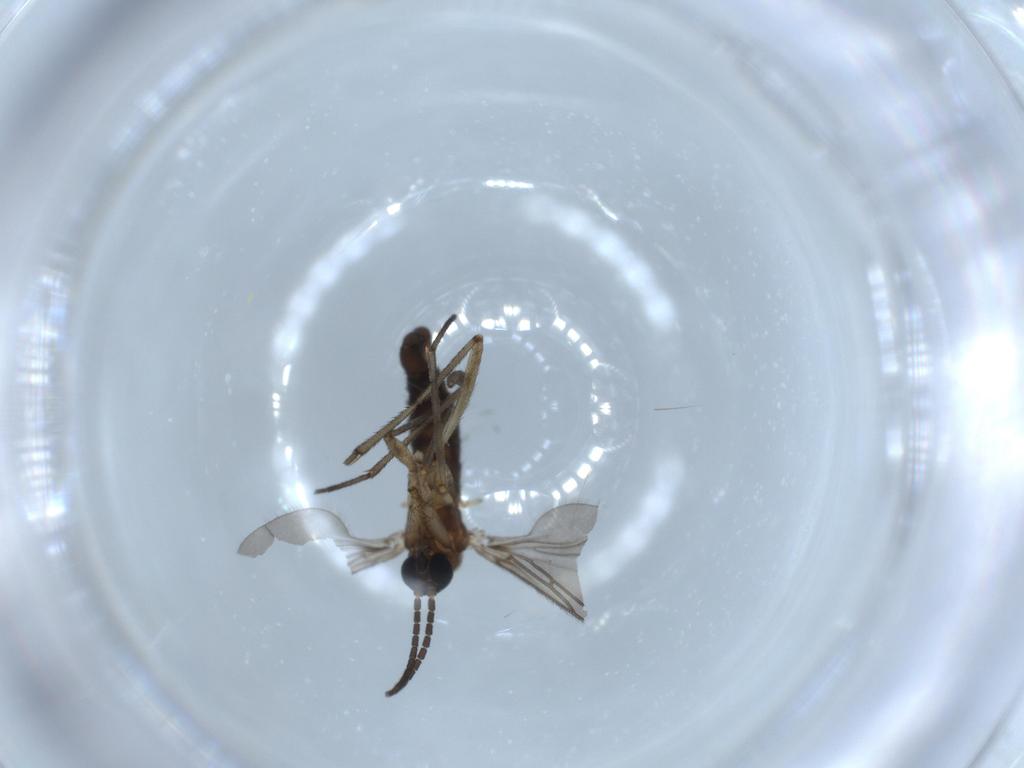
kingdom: Animalia
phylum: Arthropoda
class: Insecta
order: Diptera
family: Sciaridae
